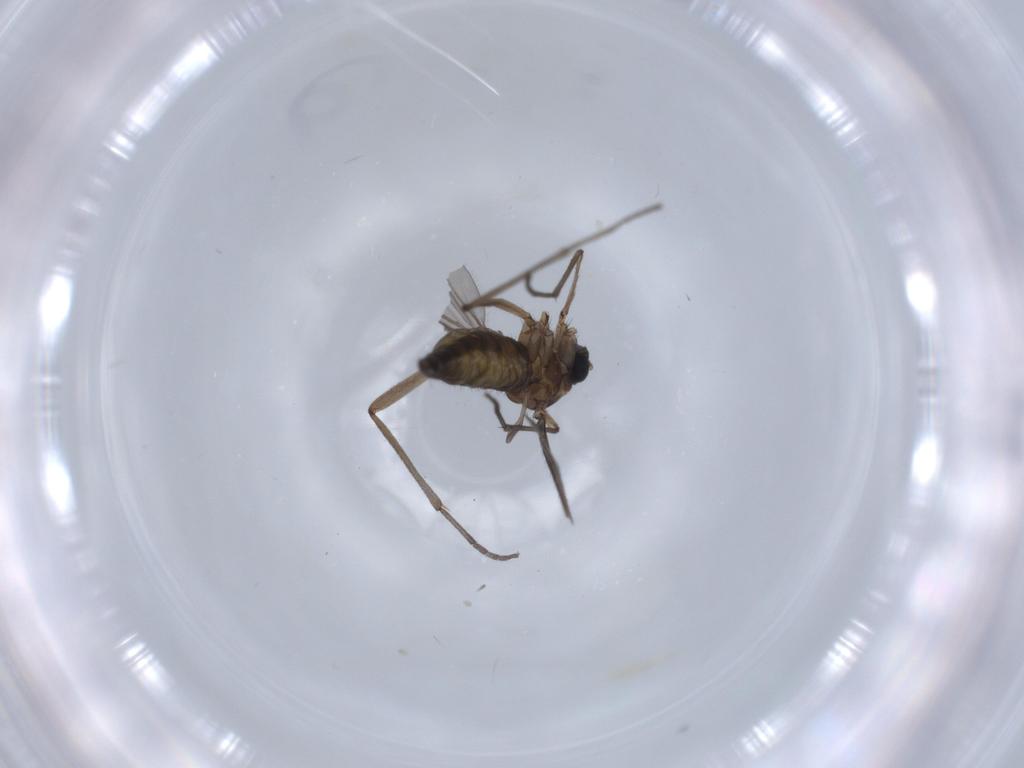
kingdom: Animalia
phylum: Arthropoda
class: Insecta
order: Diptera
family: Sciaridae
